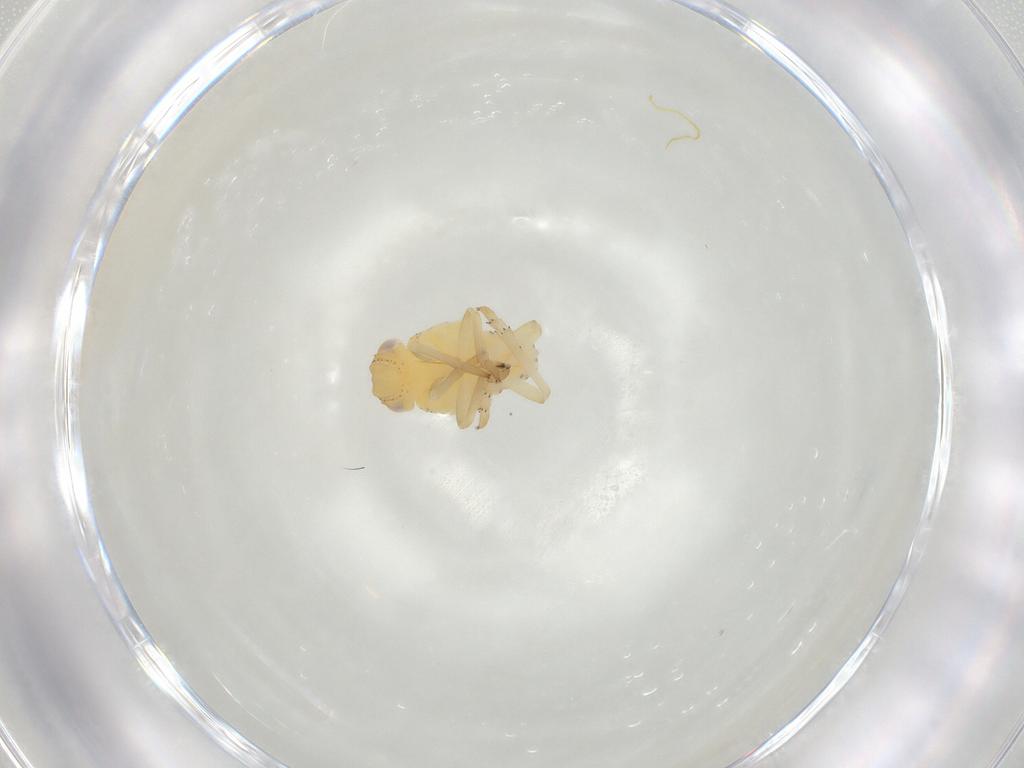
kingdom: Animalia
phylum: Arthropoda
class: Insecta
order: Hemiptera
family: Tropiduchidae
